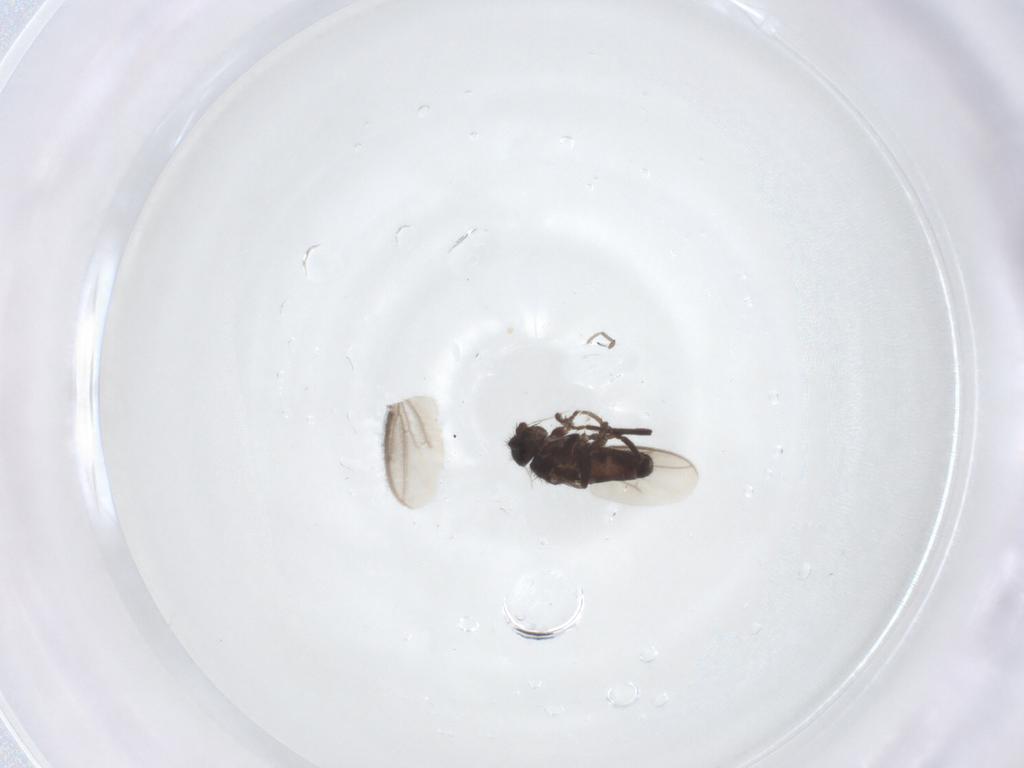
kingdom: Animalia
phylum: Arthropoda
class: Insecta
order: Diptera
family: Sphaeroceridae
